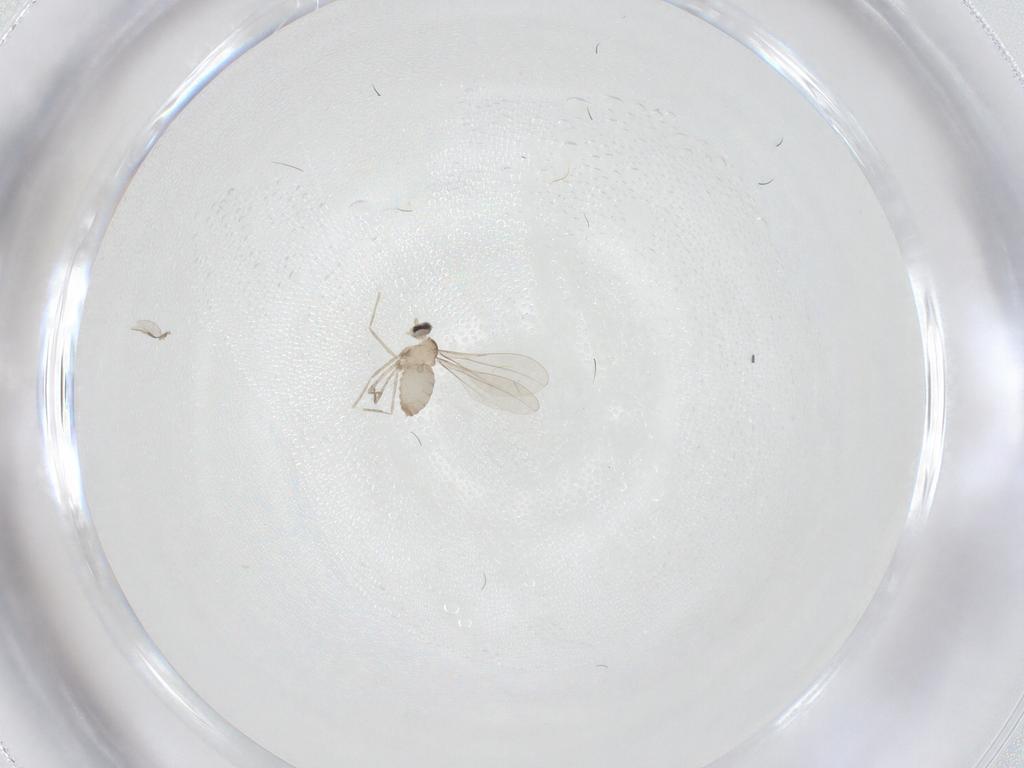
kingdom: Animalia
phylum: Arthropoda
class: Insecta
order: Diptera
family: Cecidomyiidae
